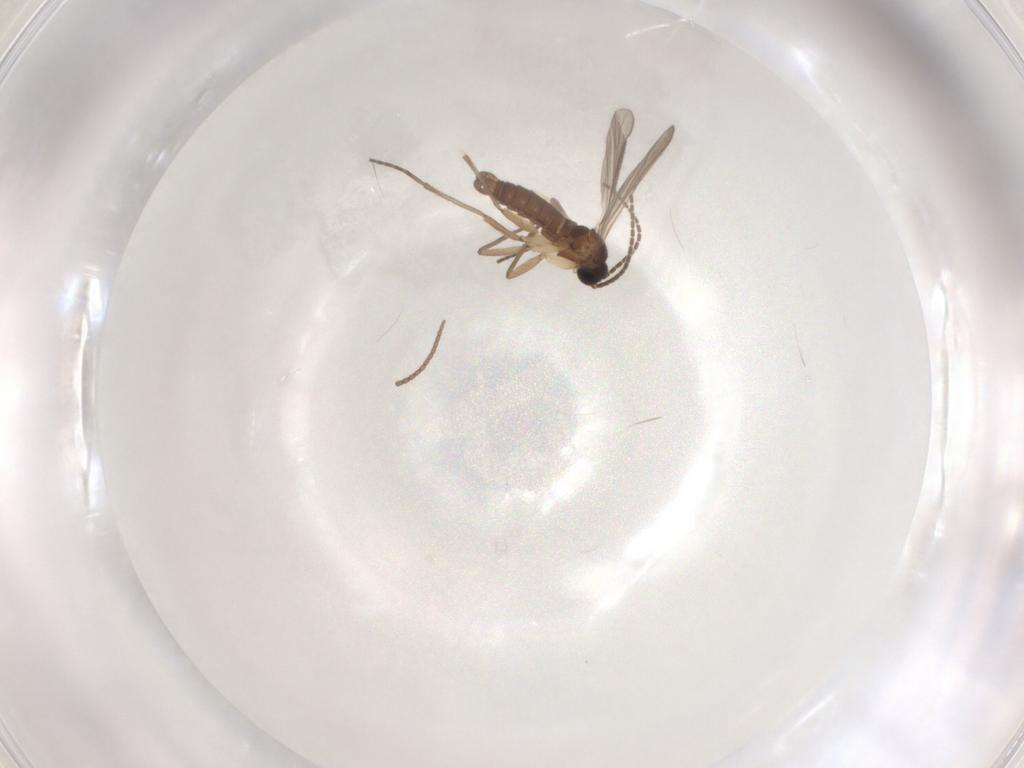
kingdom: Animalia
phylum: Arthropoda
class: Insecta
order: Diptera
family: Sciaridae
